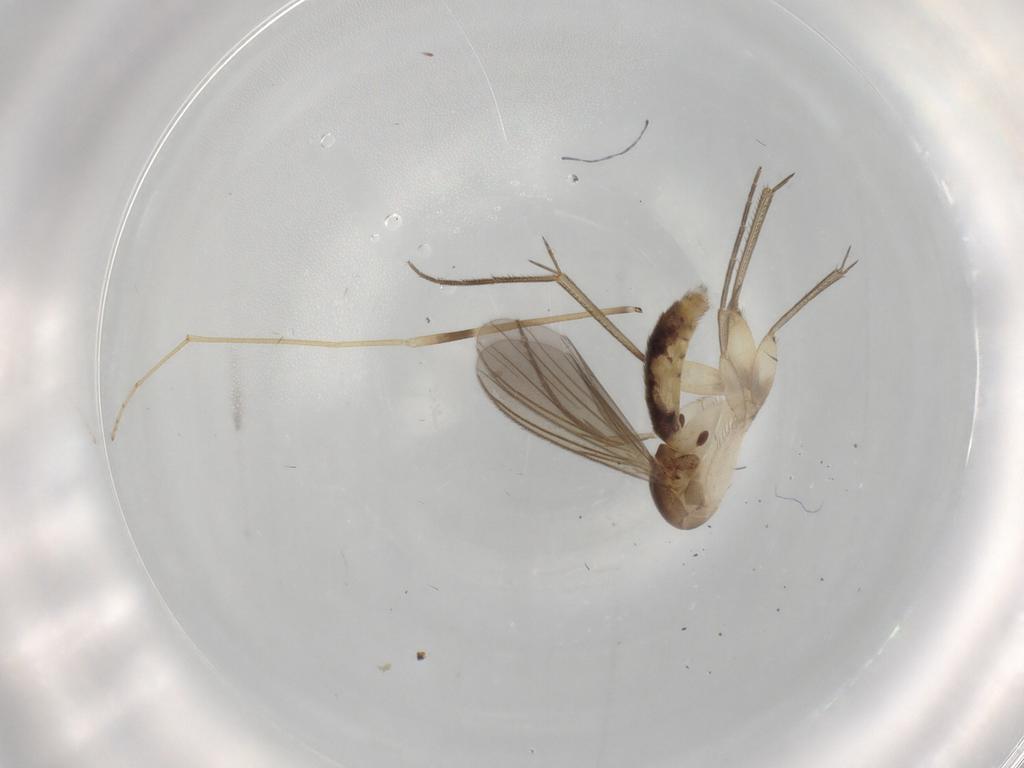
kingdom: Animalia
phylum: Arthropoda
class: Insecta
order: Diptera
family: Mycetophilidae
